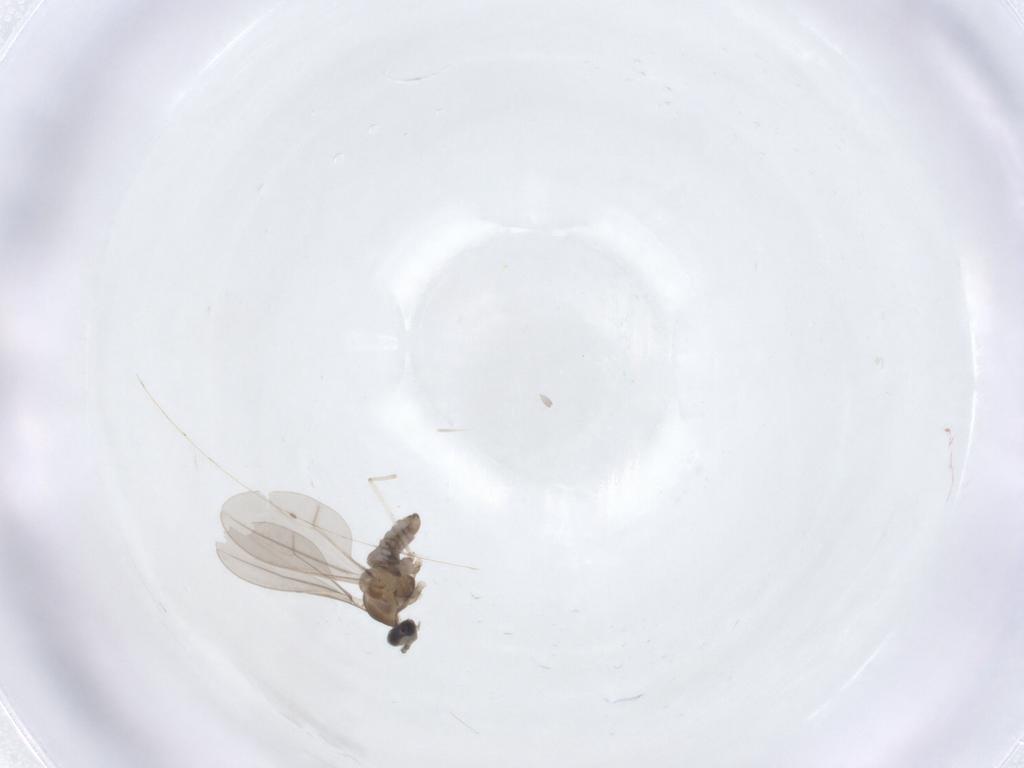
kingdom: Animalia
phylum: Arthropoda
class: Insecta
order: Diptera
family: Cecidomyiidae
